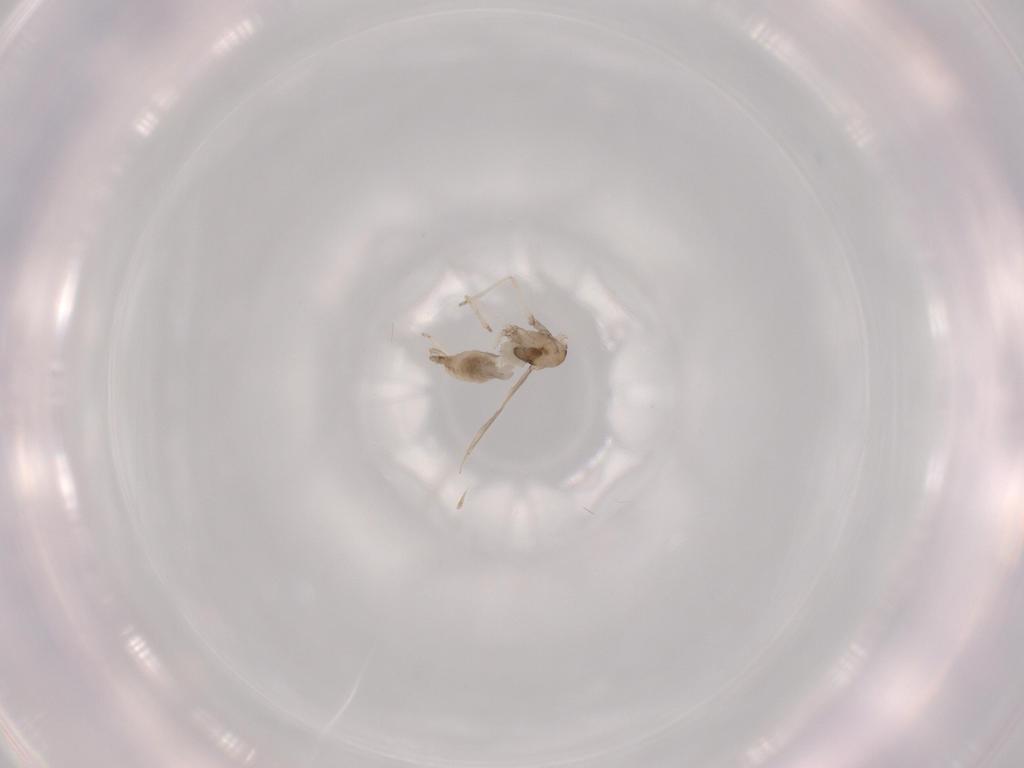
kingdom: Animalia
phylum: Arthropoda
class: Insecta
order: Diptera
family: Cecidomyiidae
